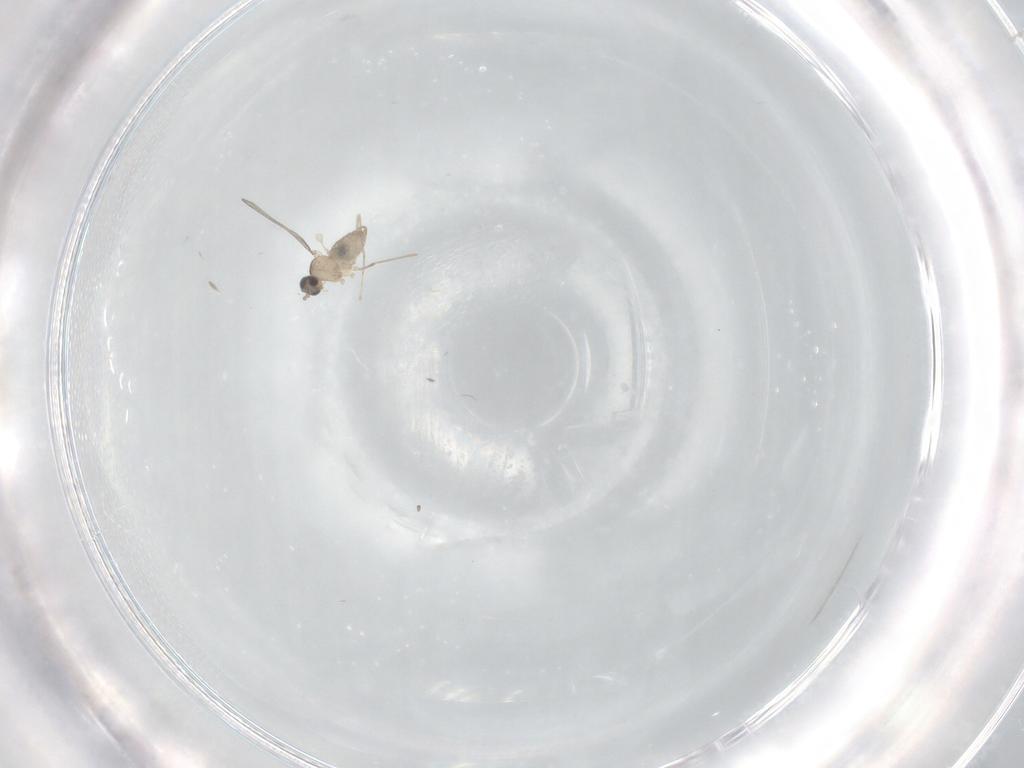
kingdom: Animalia
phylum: Arthropoda
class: Insecta
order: Diptera
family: Cecidomyiidae
